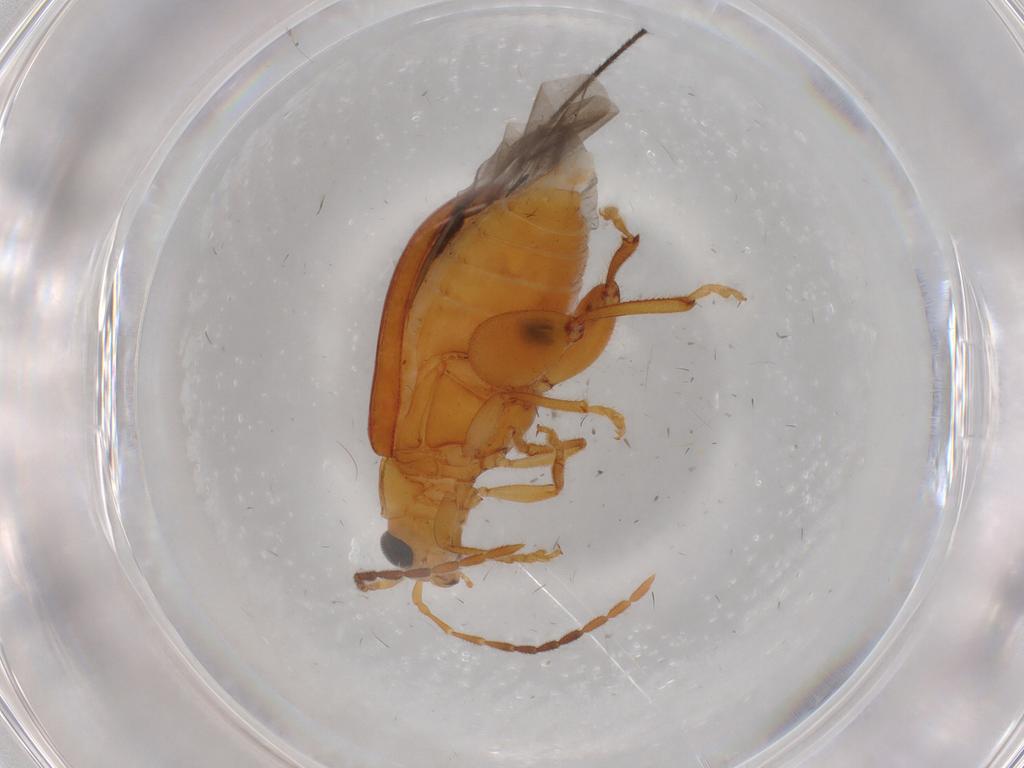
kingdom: Animalia
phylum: Arthropoda
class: Insecta
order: Coleoptera
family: Chrysomelidae
